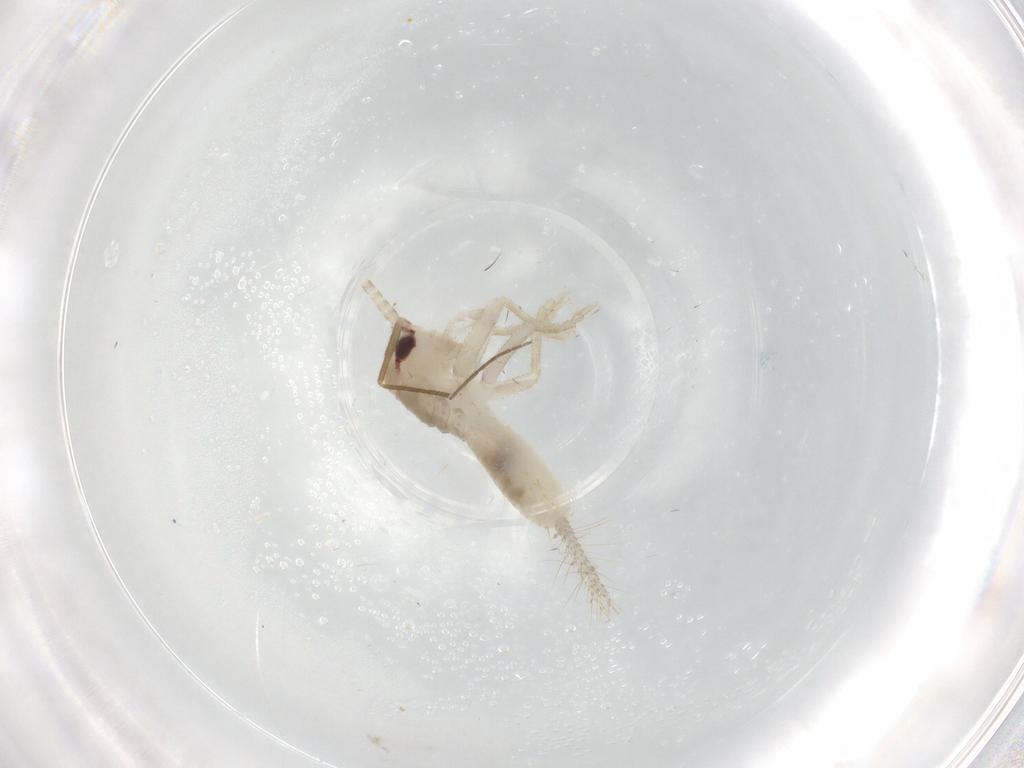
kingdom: Animalia
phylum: Arthropoda
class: Insecta
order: Orthoptera
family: Gryllidae
